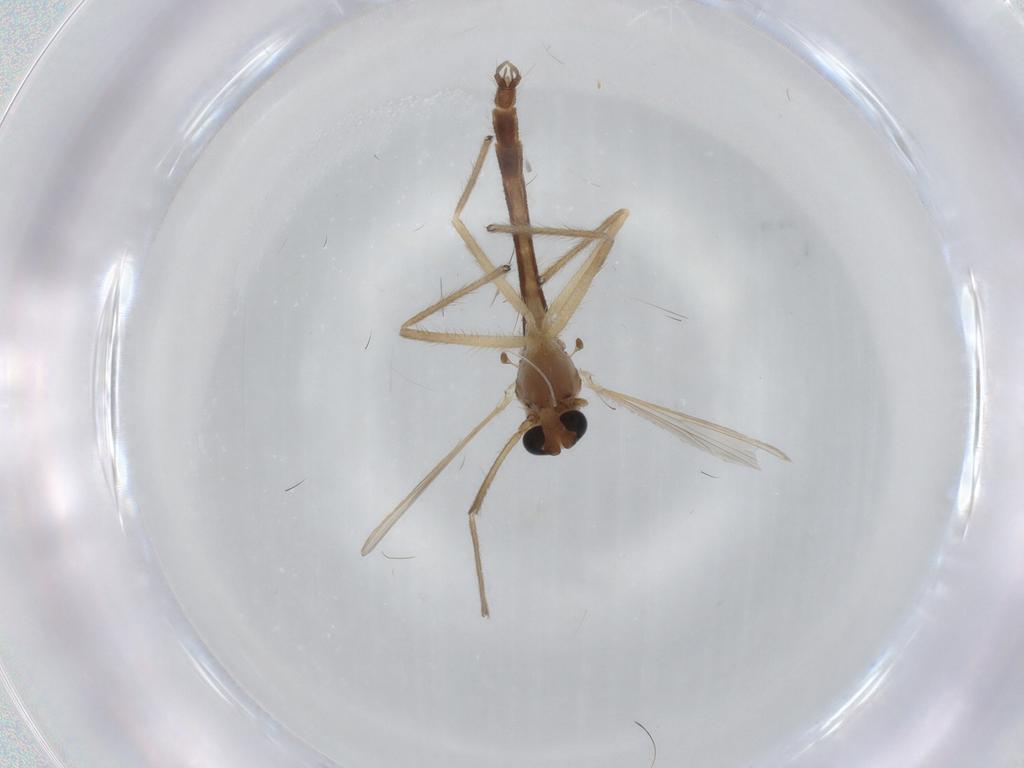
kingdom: Animalia
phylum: Arthropoda
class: Insecta
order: Diptera
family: Chironomidae
